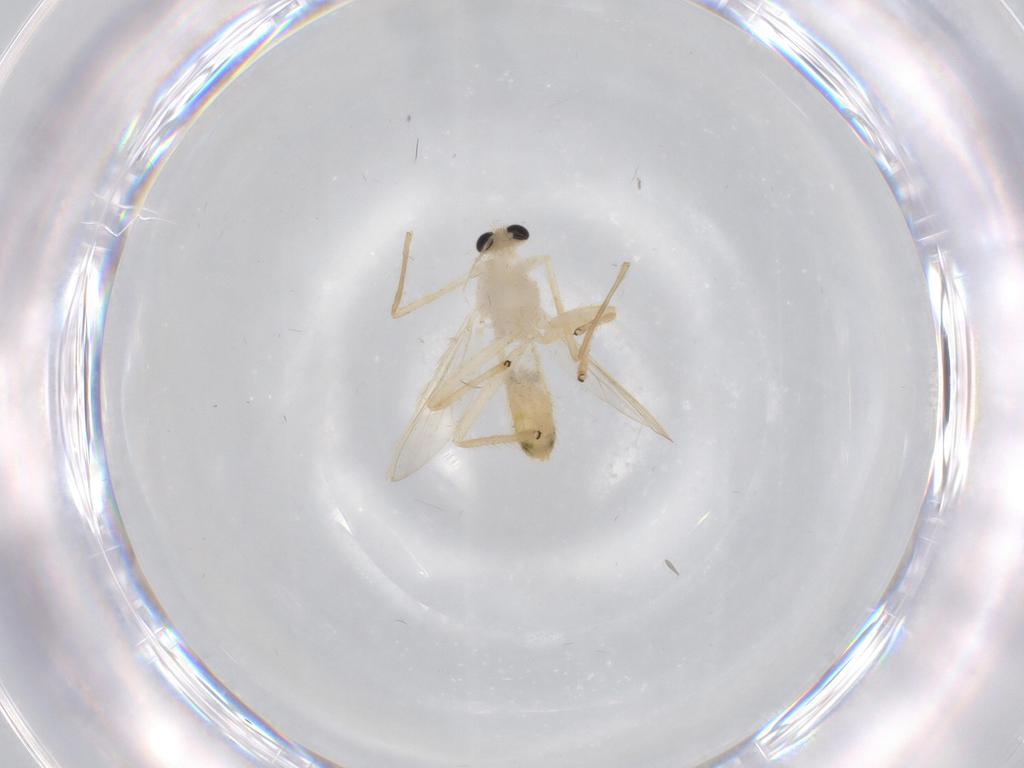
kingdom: Animalia
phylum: Arthropoda
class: Insecta
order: Diptera
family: Chironomidae
